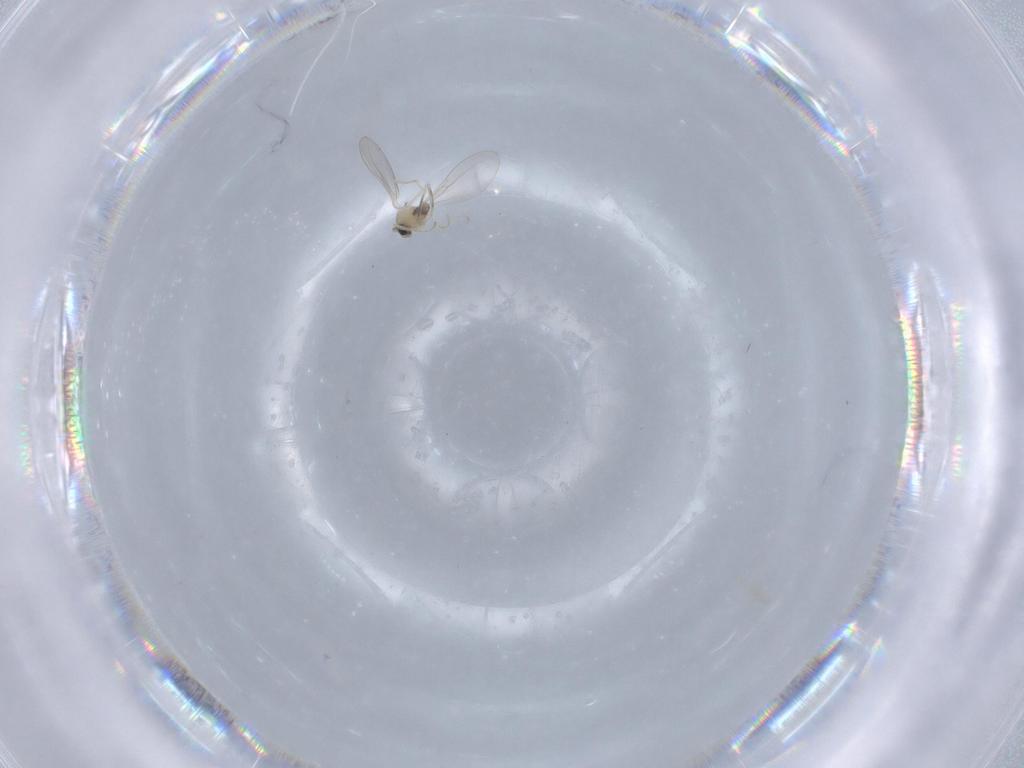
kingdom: Animalia
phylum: Arthropoda
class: Insecta
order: Diptera
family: Cecidomyiidae
